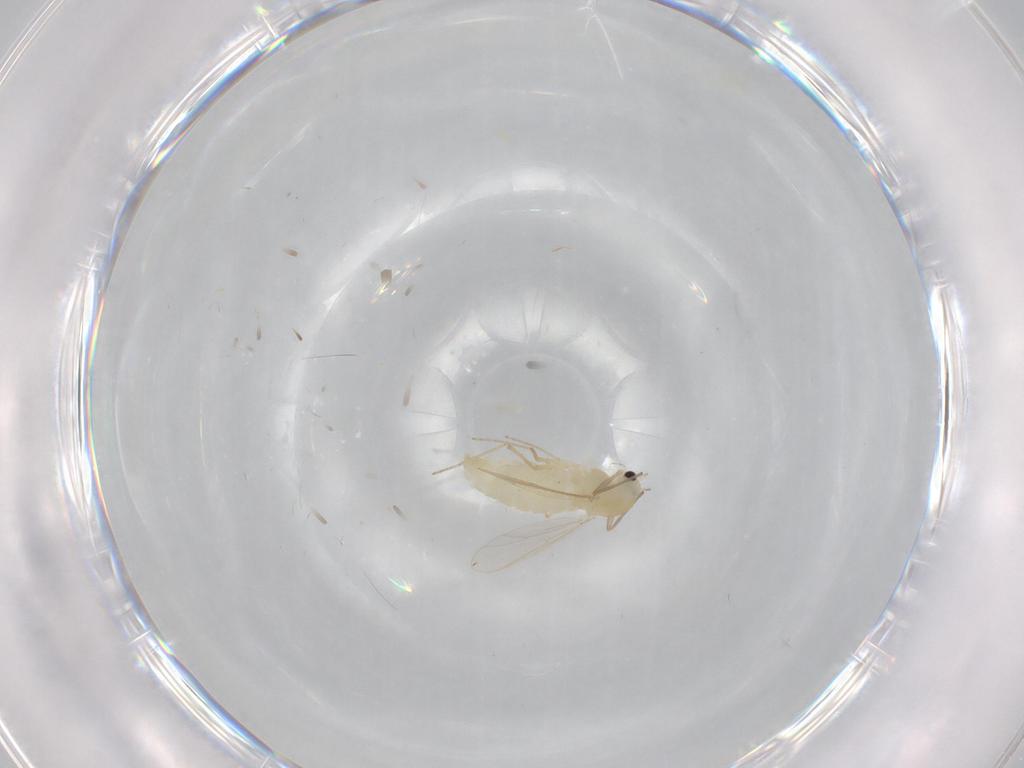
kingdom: Animalia
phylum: Arthropoda
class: Insecta
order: Diptera
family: Chironomidae
